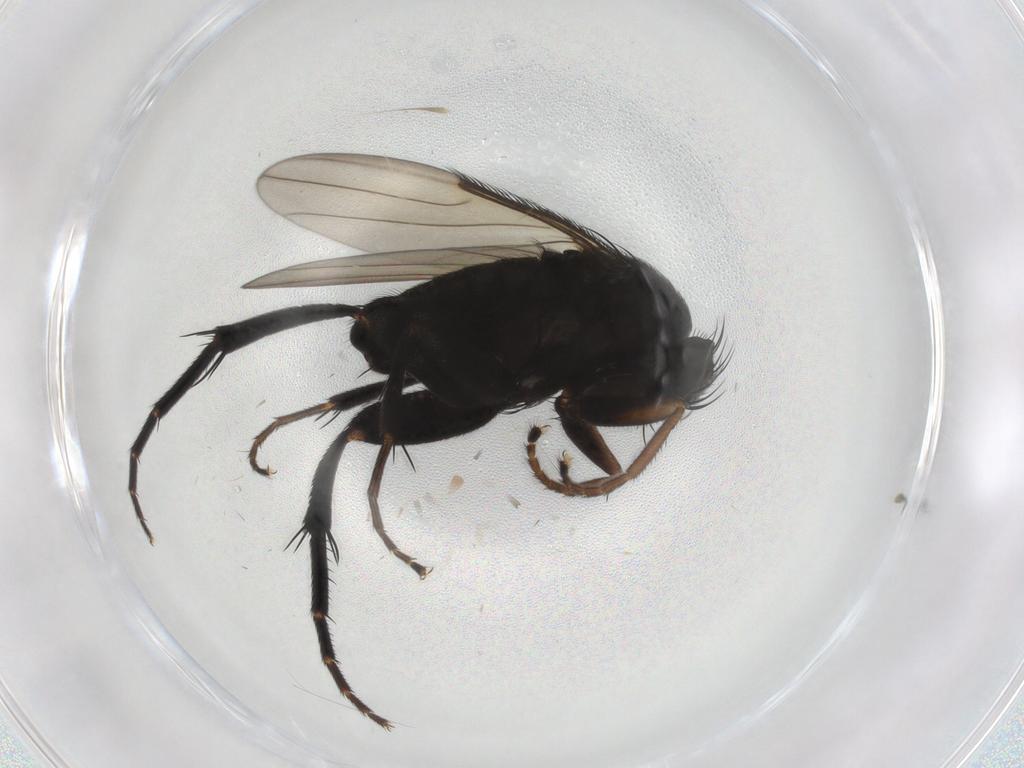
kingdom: Animalia
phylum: Arthropoda
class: Insecta
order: Diptera
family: Phoridae
